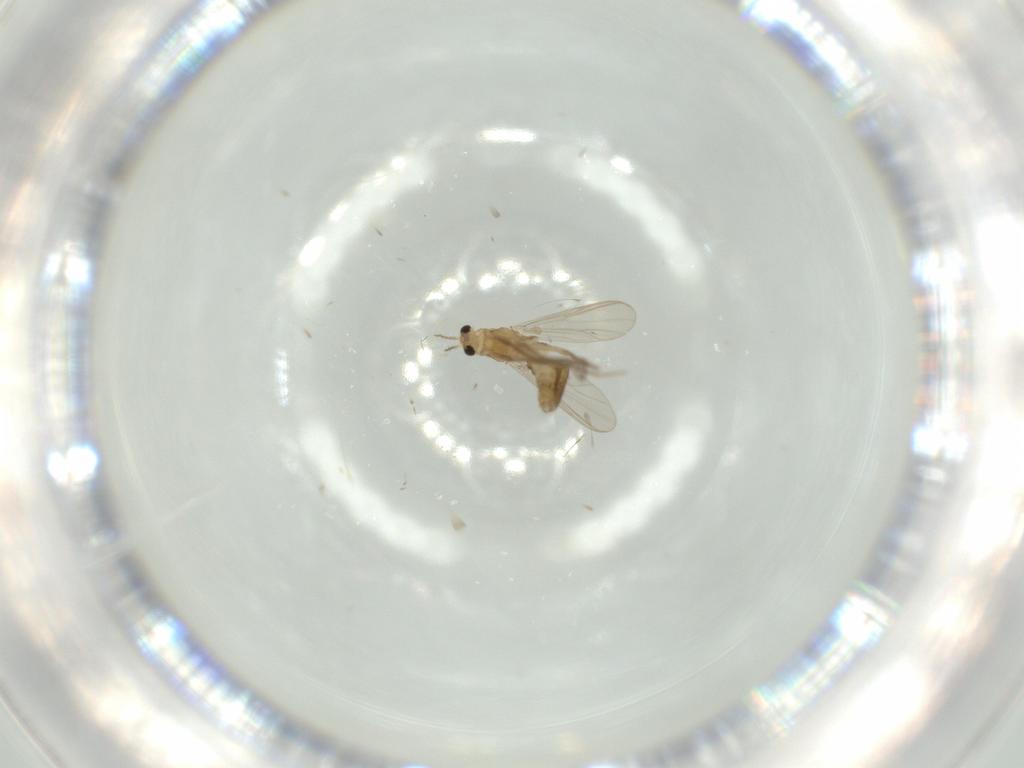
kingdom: Animalia
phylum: Arthropoda
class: Insecta
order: Diptera
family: Chironomidae
